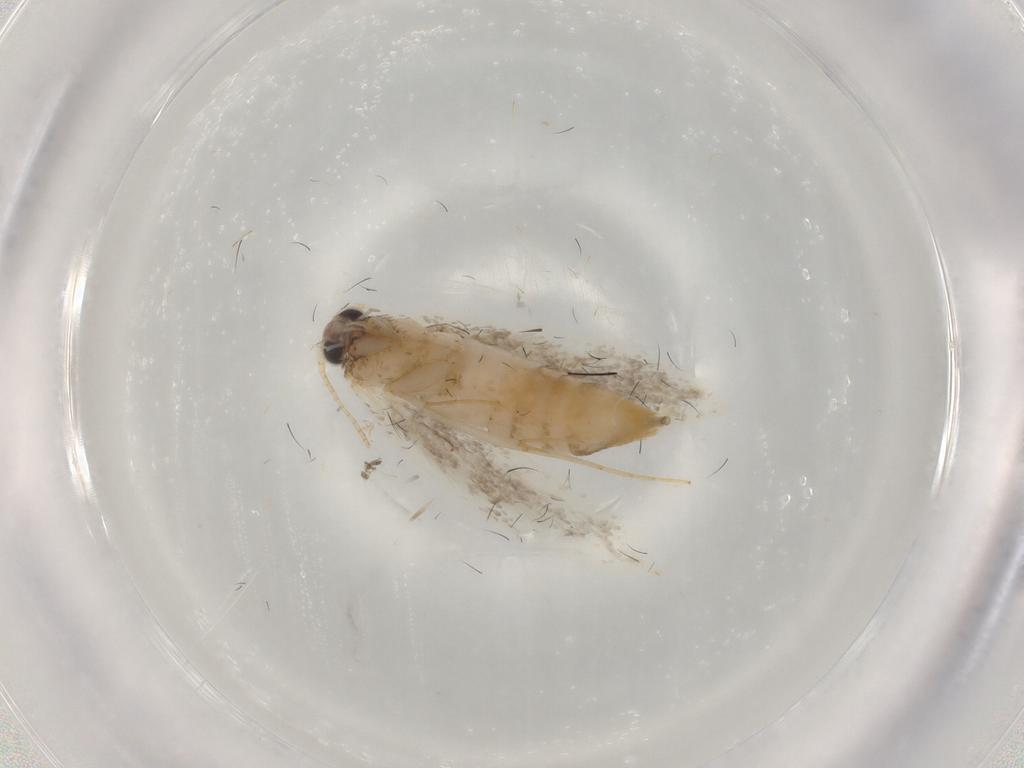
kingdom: Animalia
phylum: Arthropoda
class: Insecta
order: Lepidoptera
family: Tineidae
